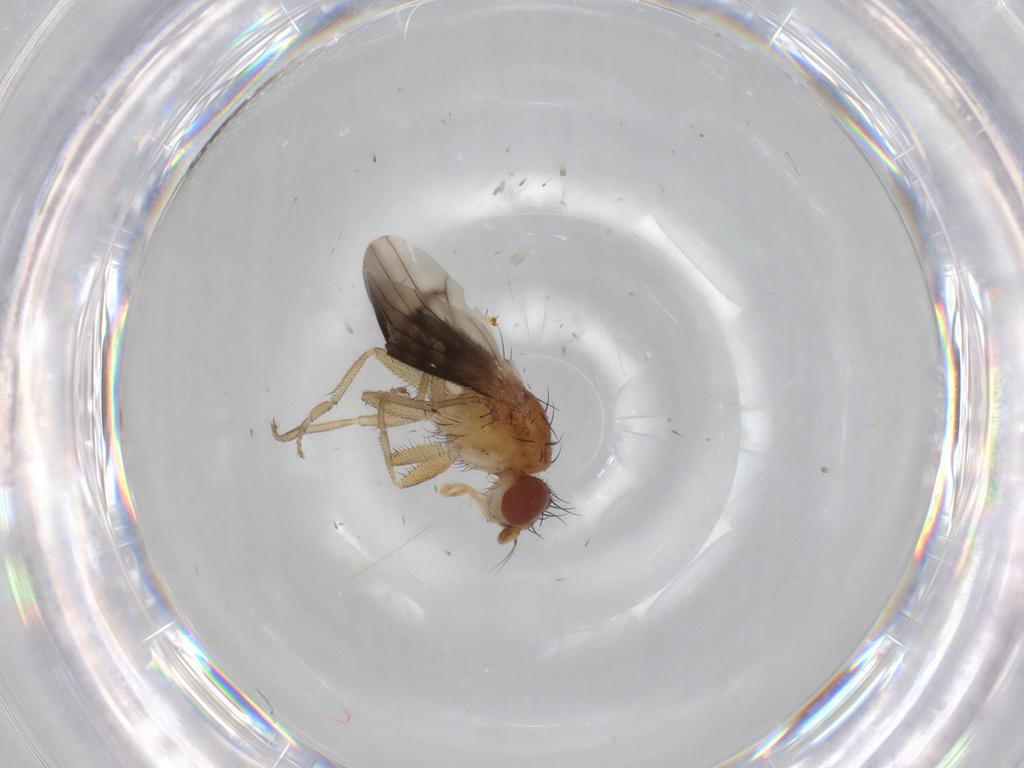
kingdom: Animalia
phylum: Arthropoda
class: Insecta
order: Diptera
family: Heleomyzidae
